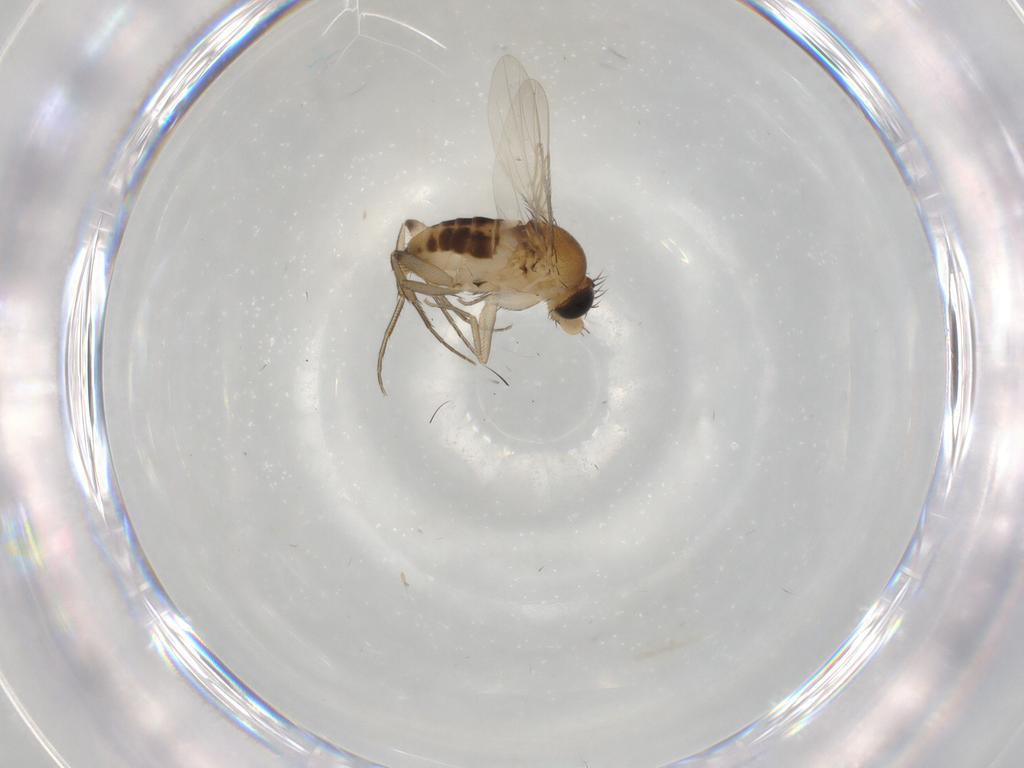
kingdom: Animalia
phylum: Arthropoda
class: Insecta
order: Diptera
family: Phoridae
